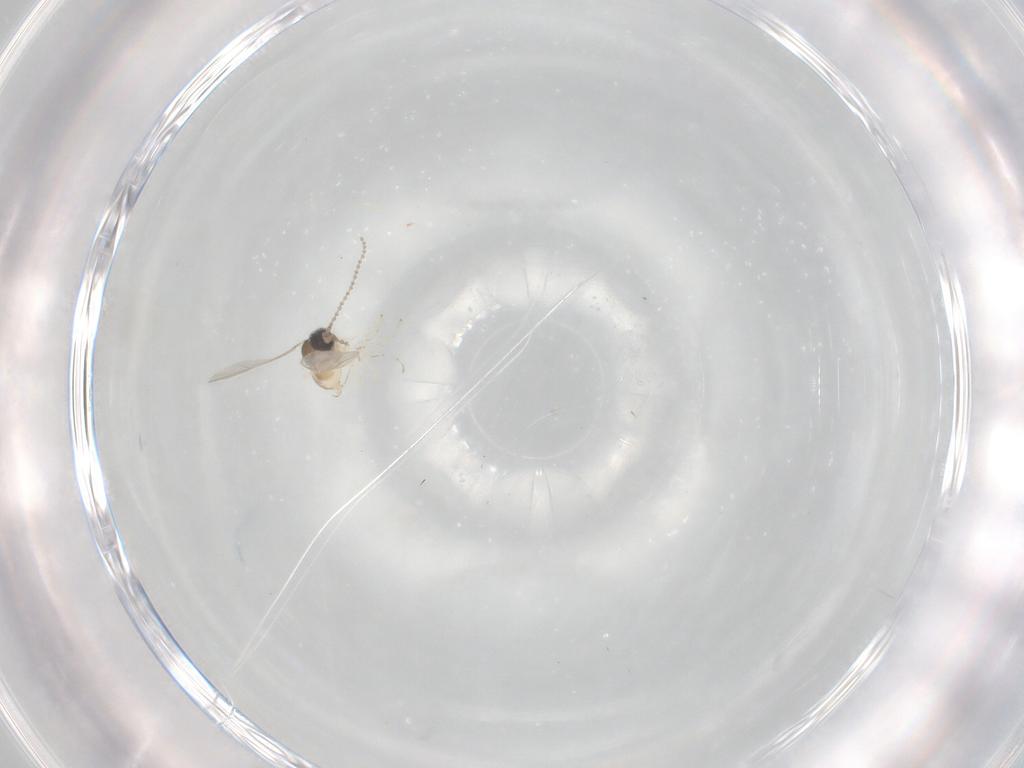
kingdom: Animalia
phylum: Arthropoda
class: Insecta
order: Diptera
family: Cecidomyiidae
